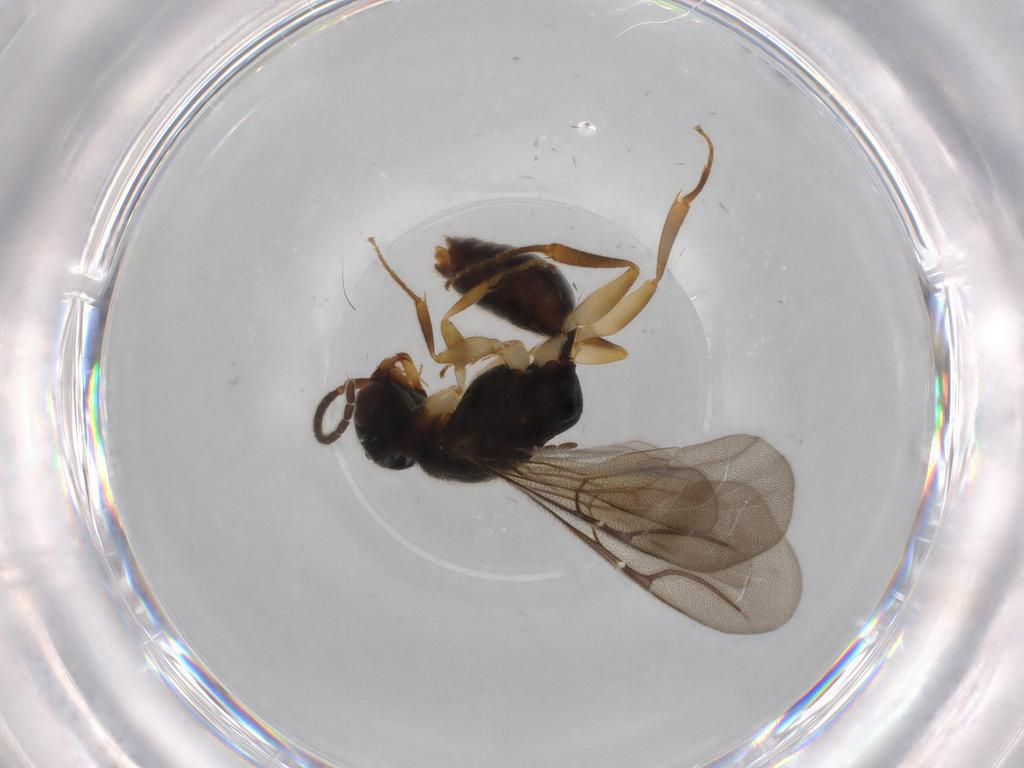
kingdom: Animalia
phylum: Arthropoda
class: Insecta
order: Hymenoptera
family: Bethylidae
